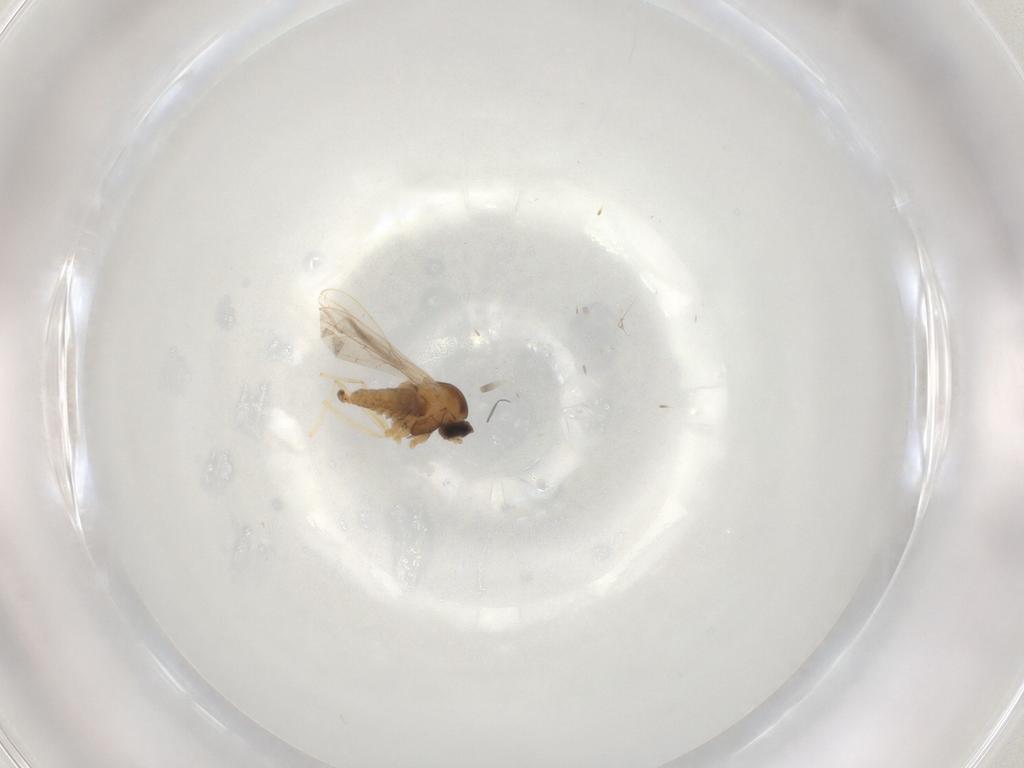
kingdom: Animalia
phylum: Arthropoda
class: Insecta
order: Diptera
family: Cecidomyiidae
